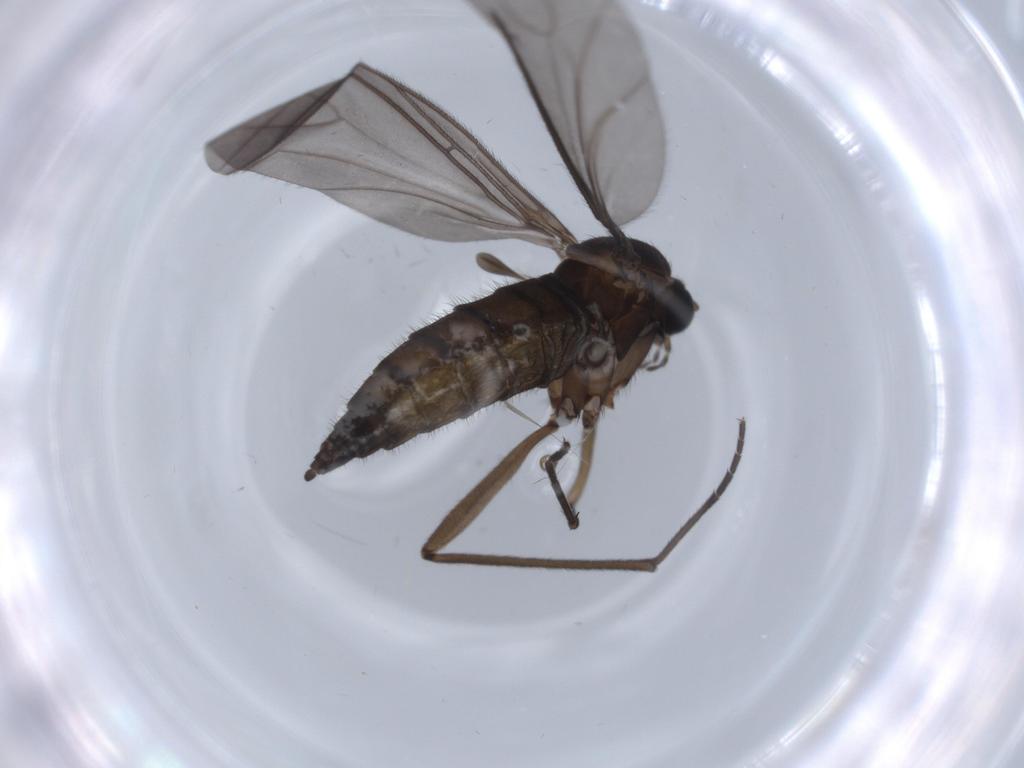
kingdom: Animalia
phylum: Arthropoda
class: Insecta
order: Diptera
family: Sciaridae
